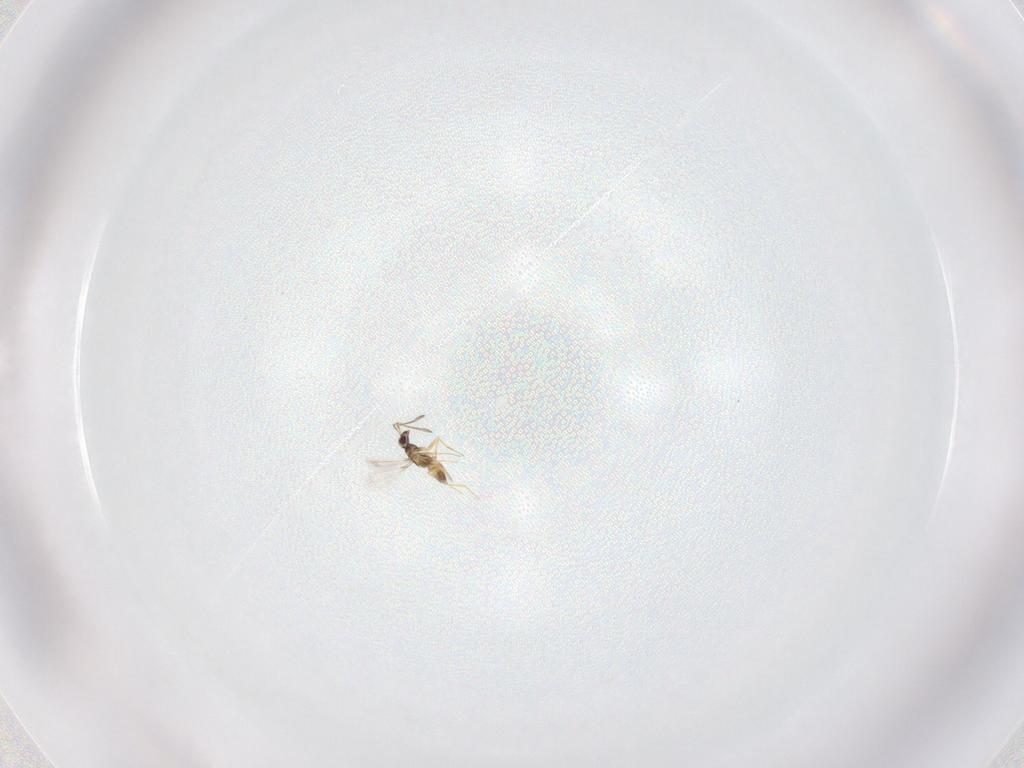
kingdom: Animalia
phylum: Arthropoda
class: Insecta
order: Hymenoptera
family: Mymaridae
